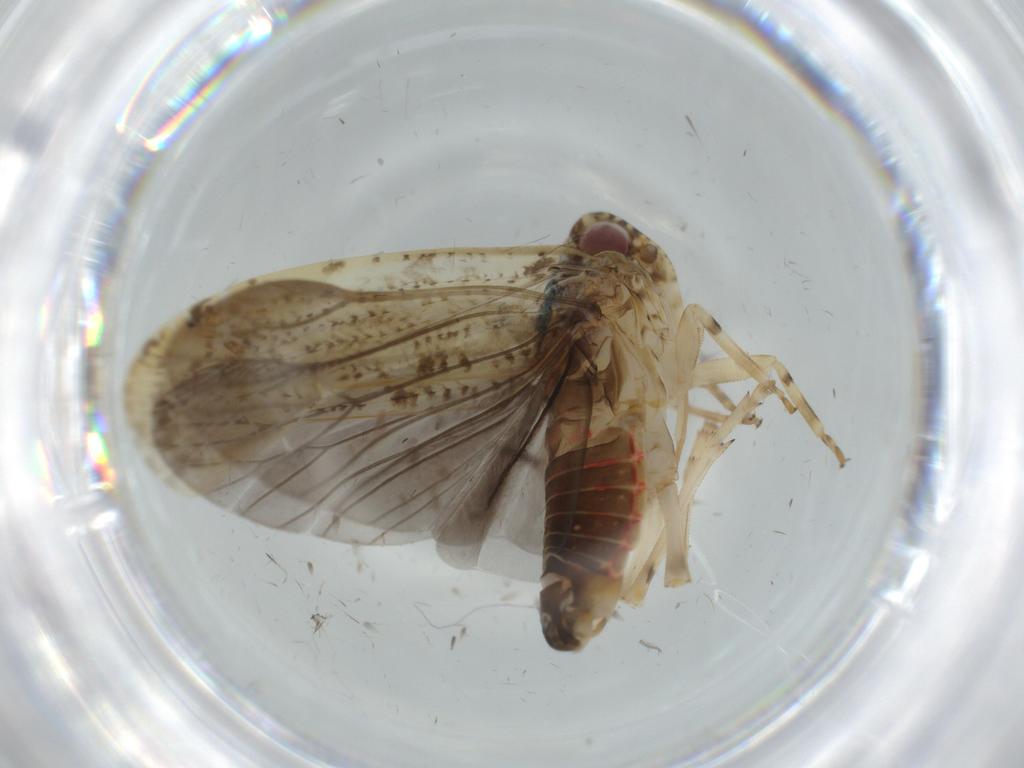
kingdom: Animalia
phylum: Arthropoda
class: Insecta
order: Hemiptera
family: Achilidae
